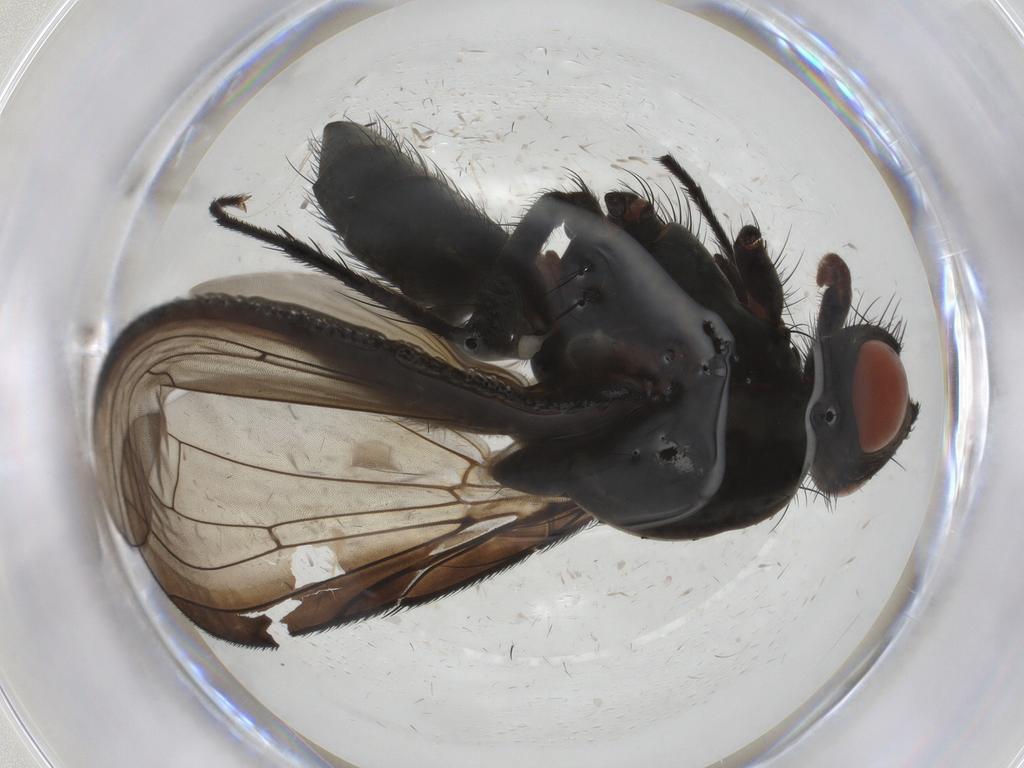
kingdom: Animalia
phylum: Arthropoda
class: Insecta
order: Diptera
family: Anthomyiidae
